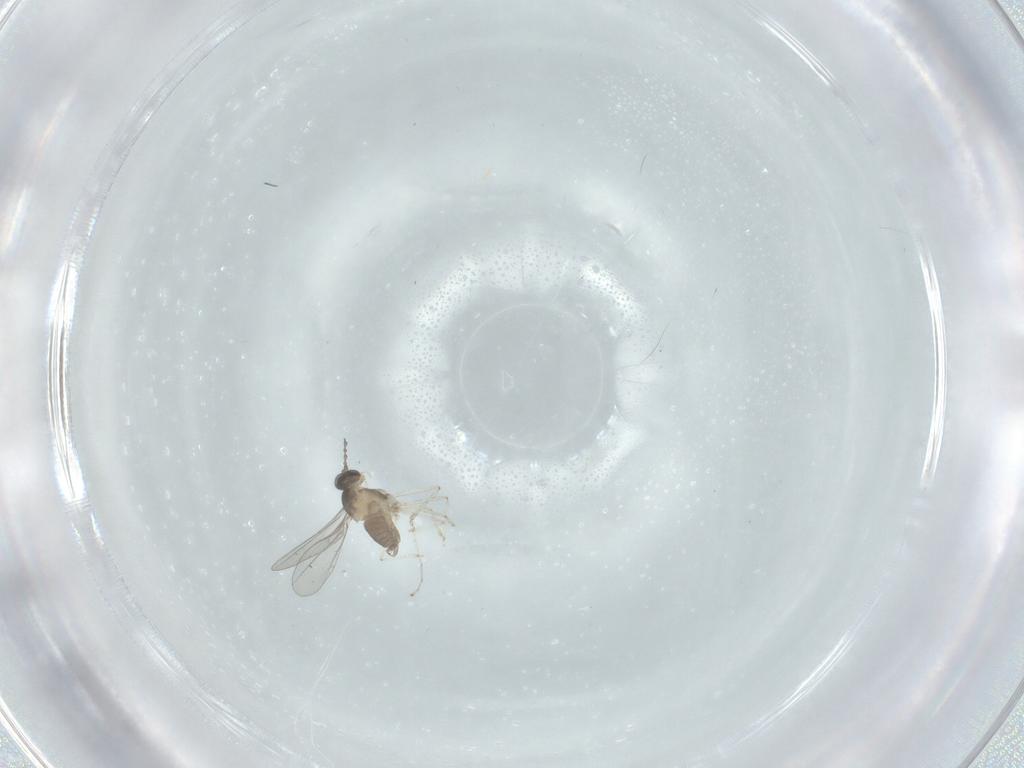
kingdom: Animalia
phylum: Arthropoda
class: Insecta
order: Diptera
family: Cecidomyiidae
